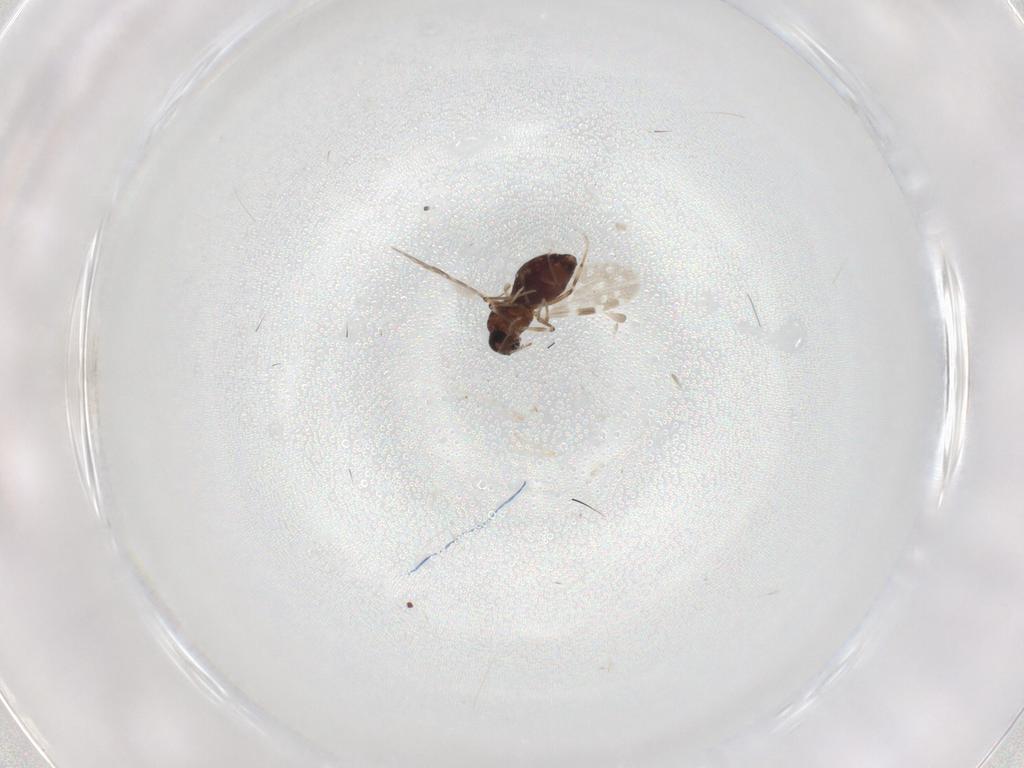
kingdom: Animalia
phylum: Arthropoda
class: Insecta
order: Diptera
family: Cecidomyiidae
